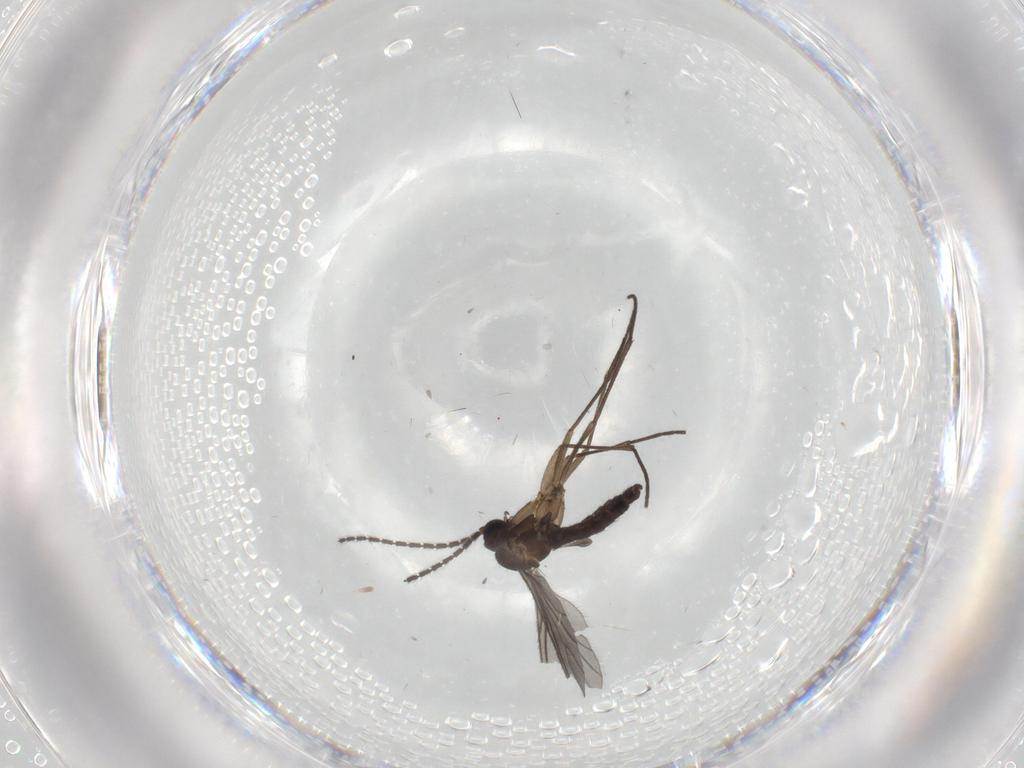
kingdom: Animalia
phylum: Arthropoda
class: Insecta
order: Diptera
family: Sciaridae
